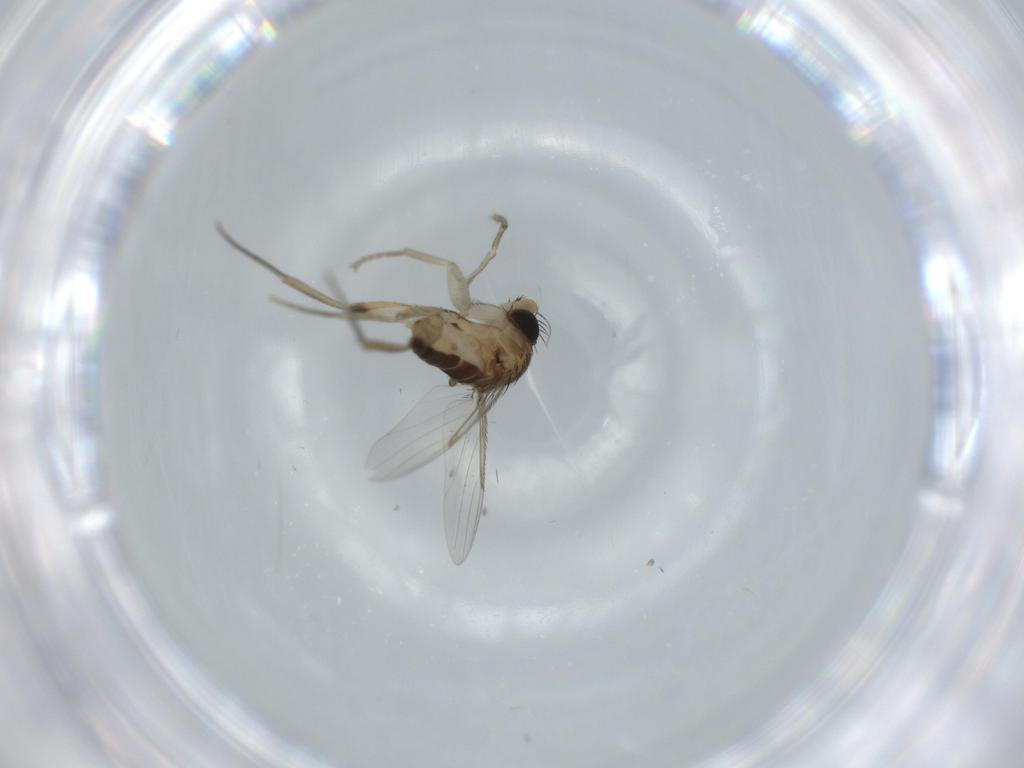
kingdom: Animalia
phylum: Arthropoda
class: Insecta
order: Diptera
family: Phoridae
